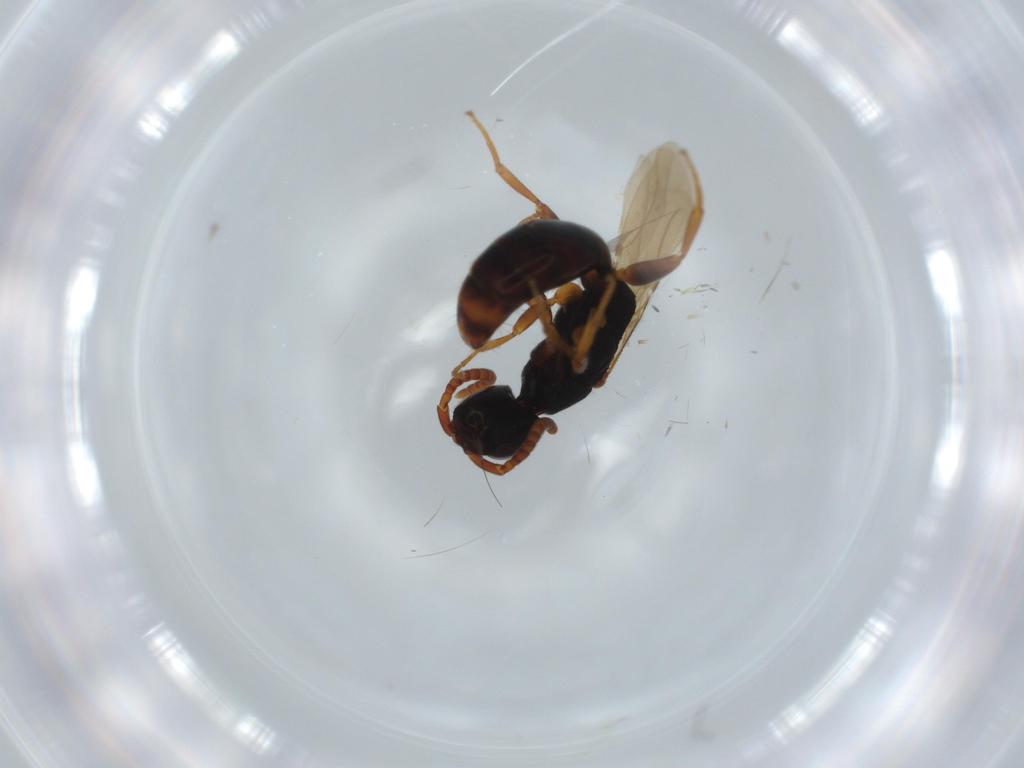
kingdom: Animalia
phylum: Arthropoda
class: Insecta
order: Hymenoptera
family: Bethylidae
